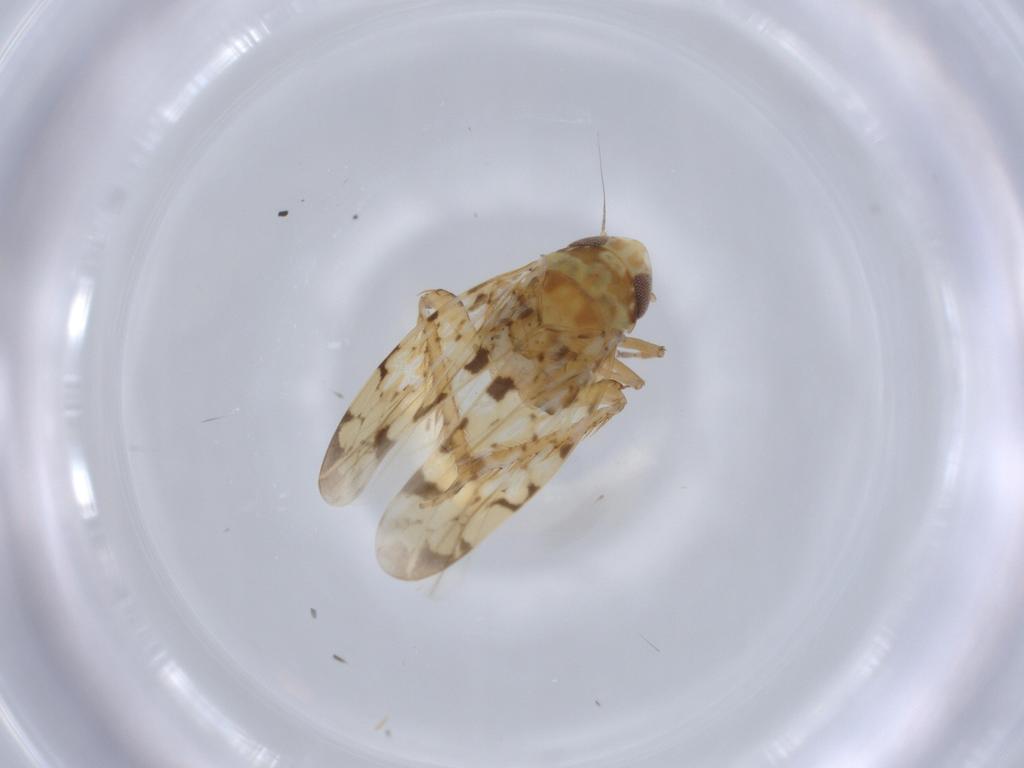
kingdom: Animalia
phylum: Arthropoda
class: Insecta
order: Hemiptera
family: Cicadellidae
